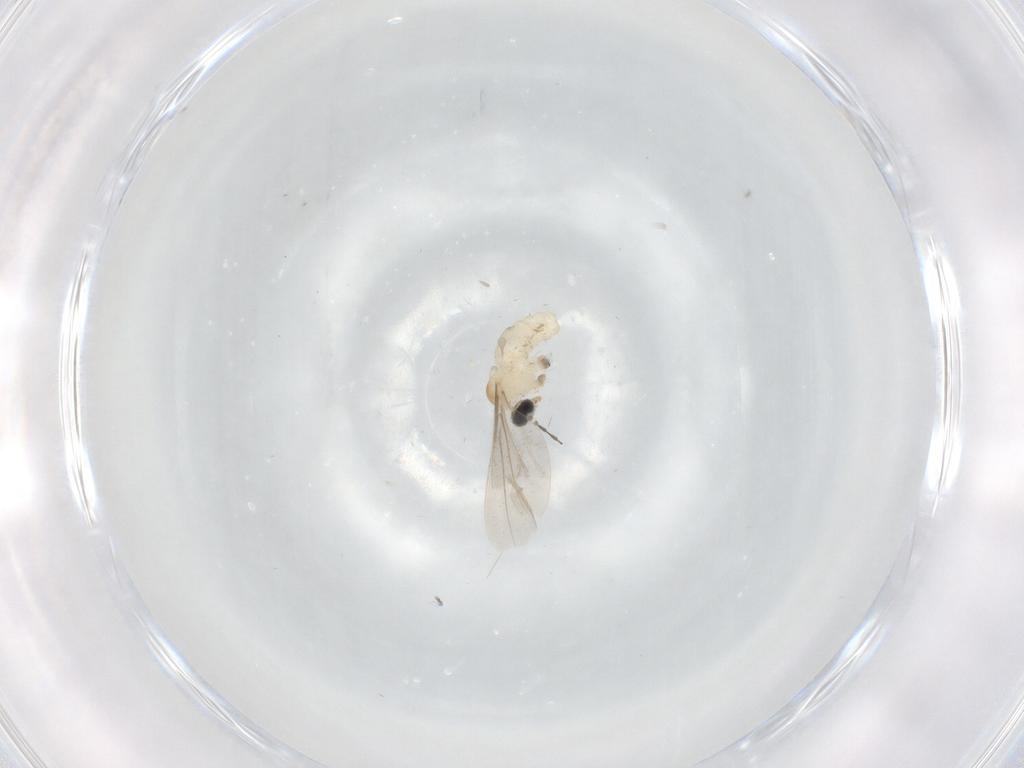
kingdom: Animalia
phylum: Arthropoda
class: Insecta
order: Diptera
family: Cecidomyiidae
